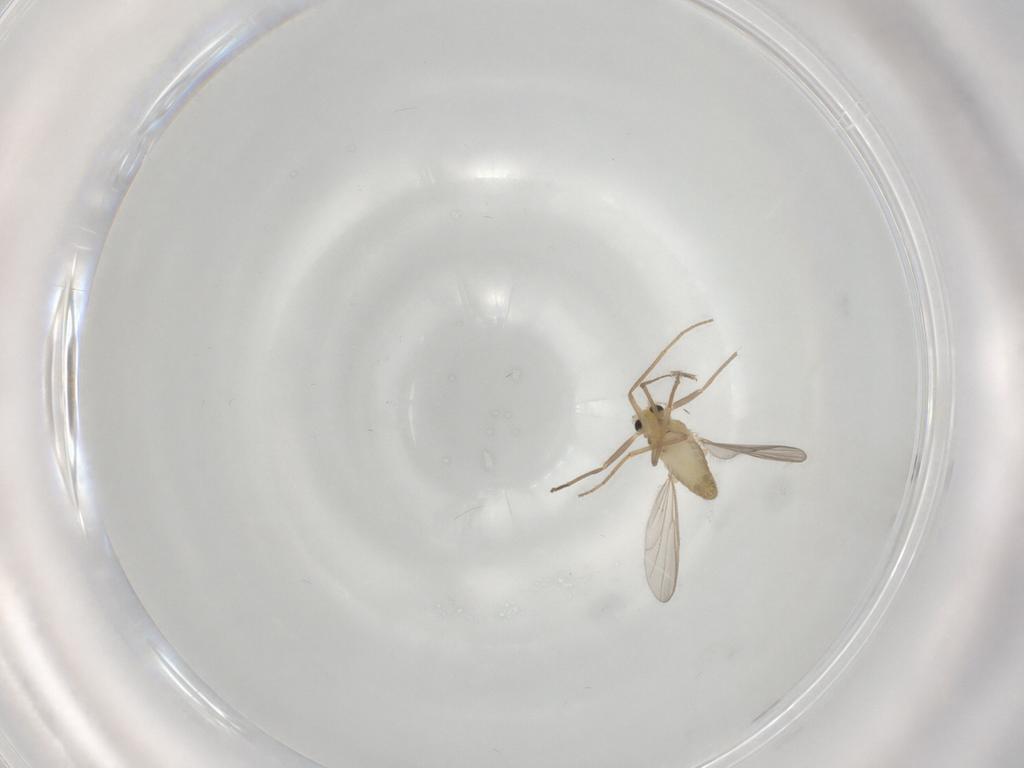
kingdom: Animalia
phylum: Arthropoda
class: Insecta
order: Diptera
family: Chironomidae
